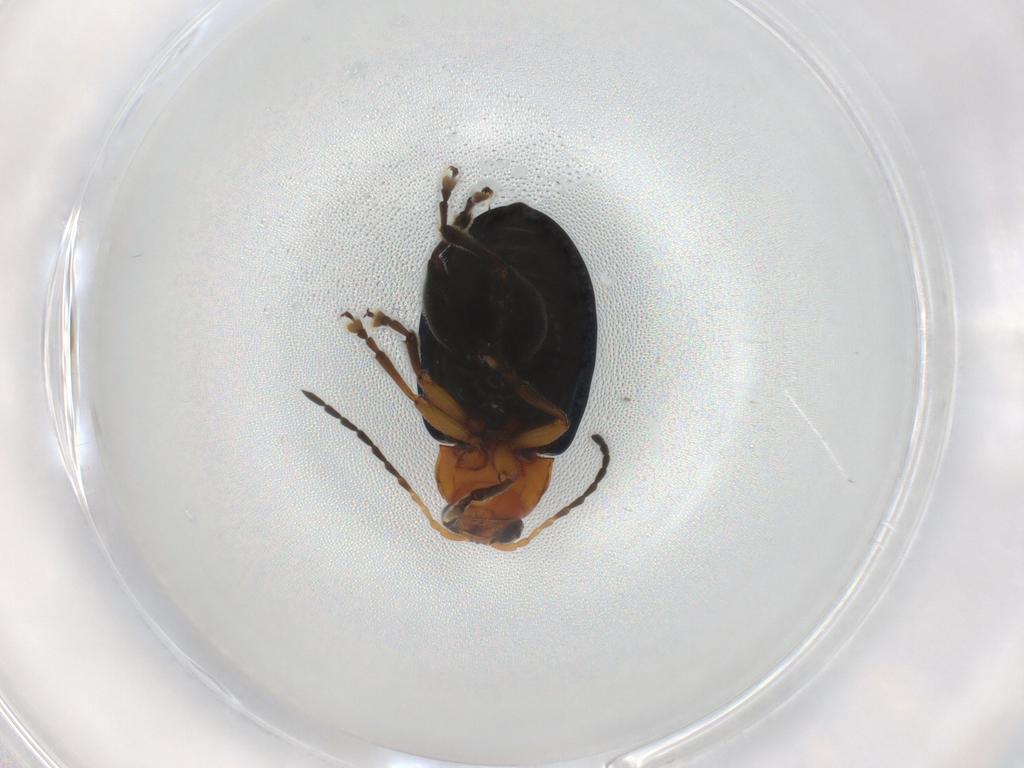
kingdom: Animalia
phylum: Arthropoda
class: Insecta
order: Coleoptera
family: Chrysomelidae
